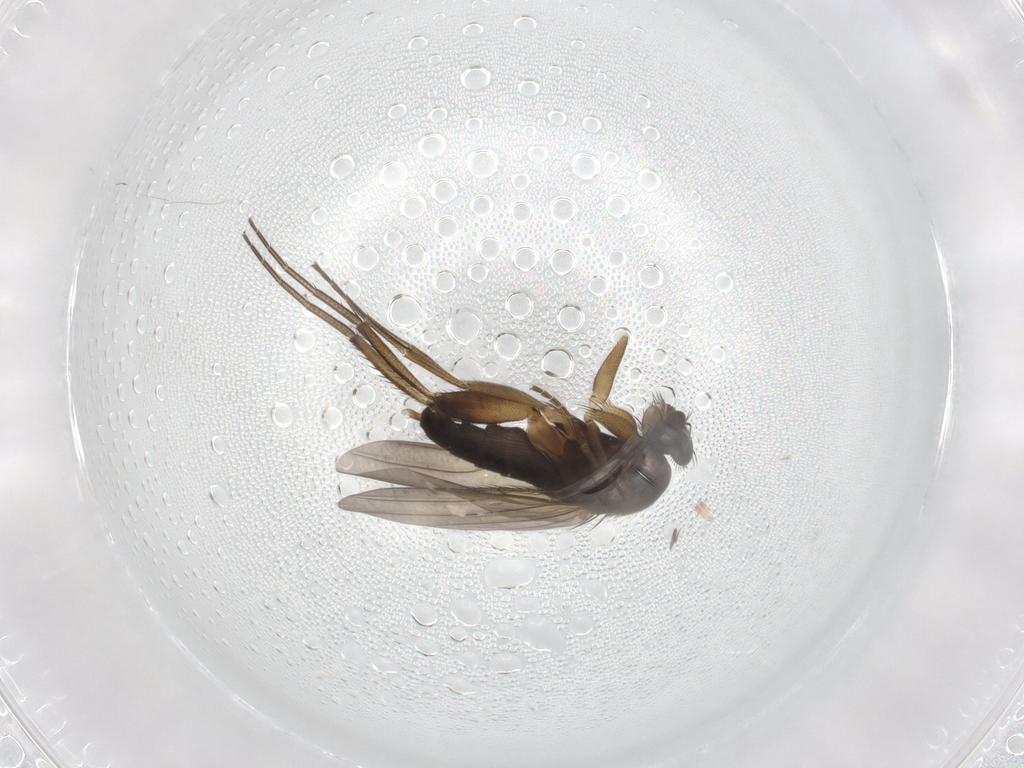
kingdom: Animalia
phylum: Arthropoda
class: Insecta
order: Diptera
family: Phoridae
